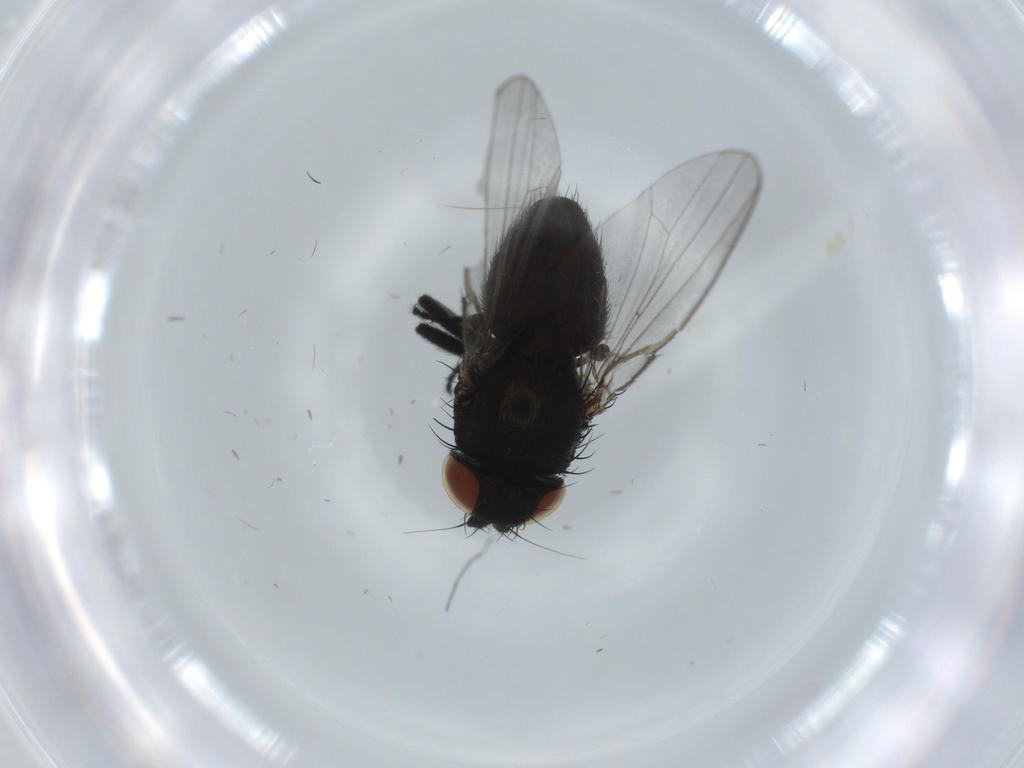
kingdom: Animalia
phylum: Arthropoda
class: Insecta
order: Diptera
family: Milichiidae
